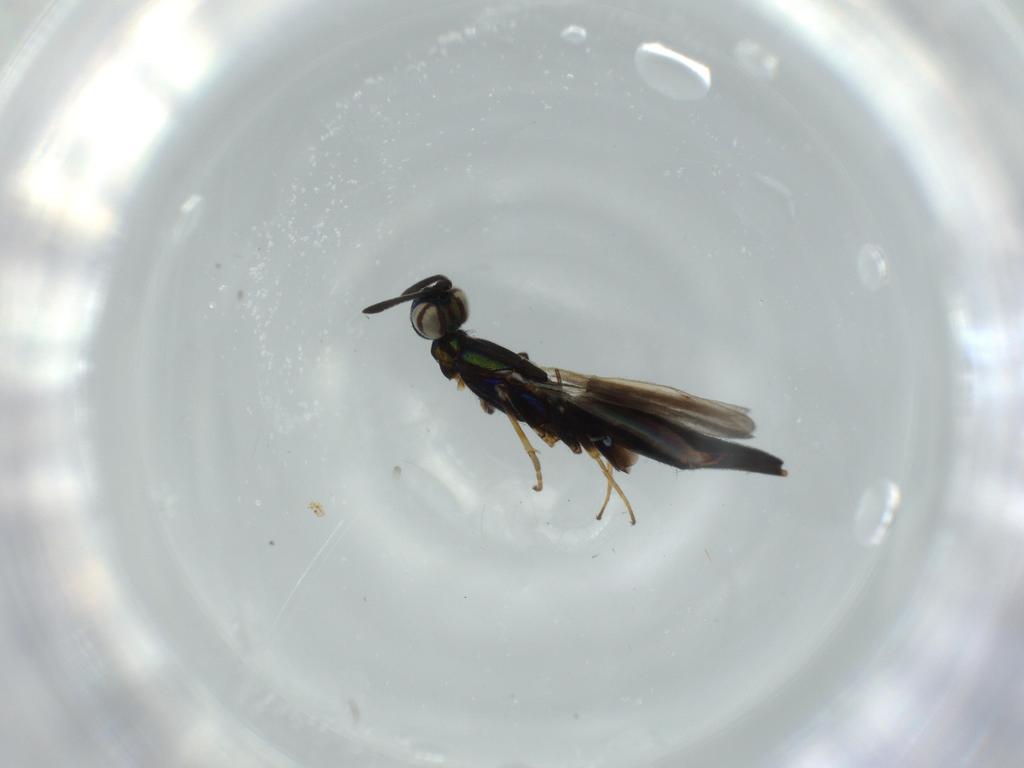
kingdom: Animalia
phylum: Arthropoda
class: Insecta
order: Hymenoptera
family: Eupelmidae
